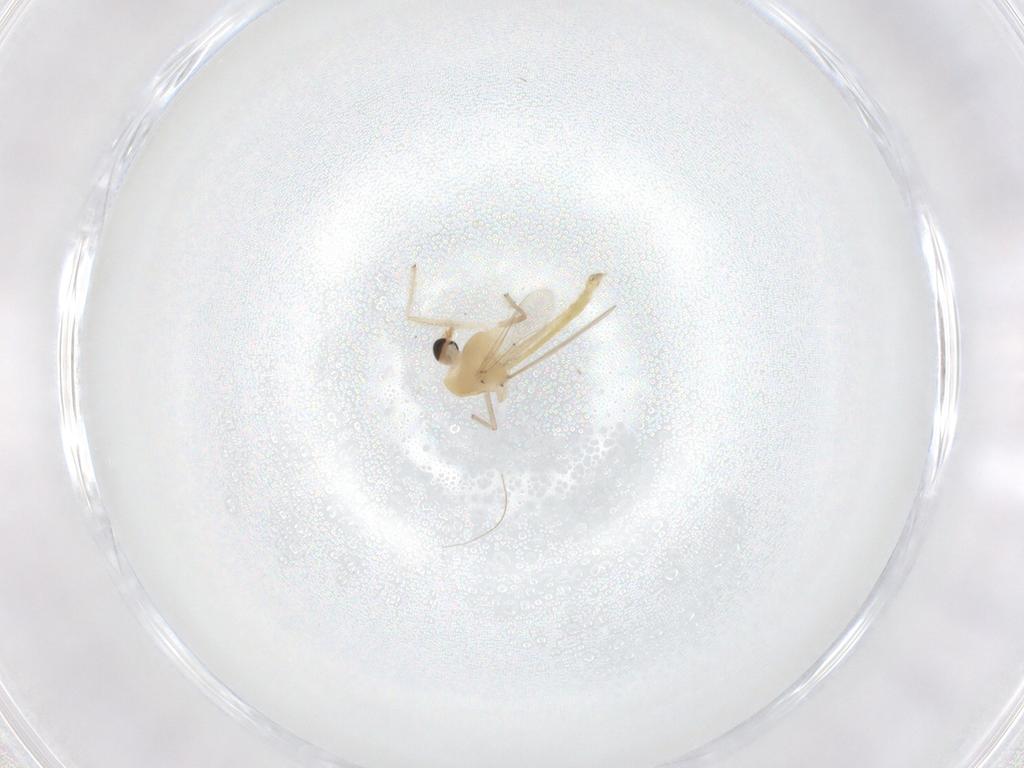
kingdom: Animalia
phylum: Arthropoda
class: Insecta
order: Diptera
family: Chironomidae
